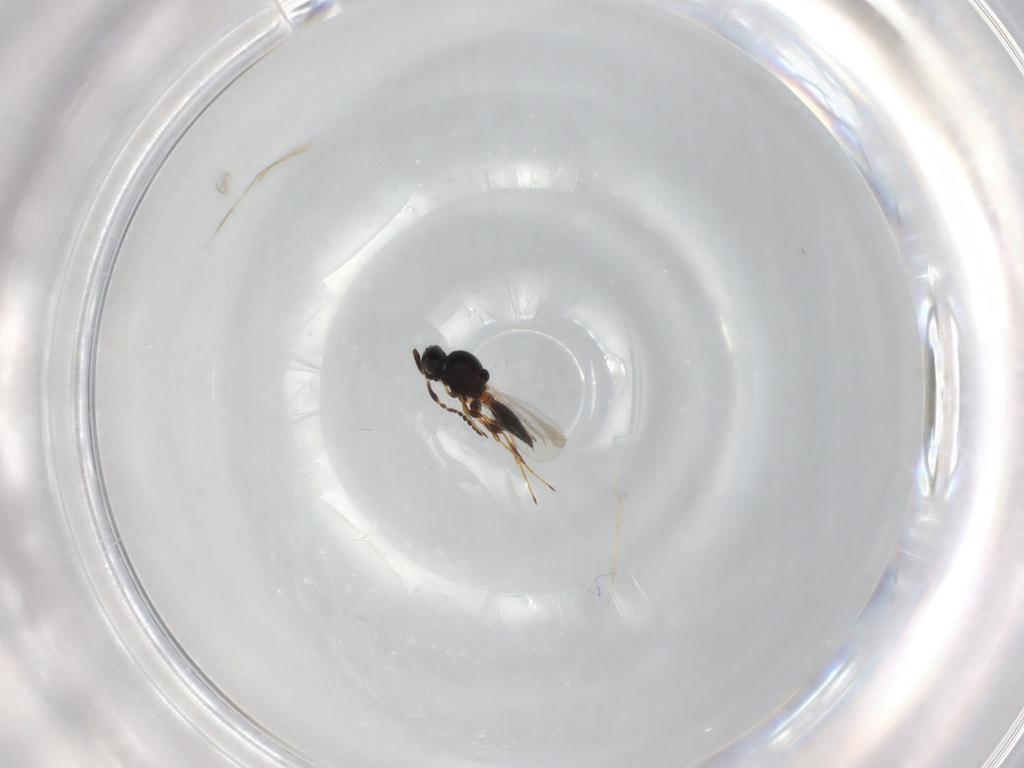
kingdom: Animalia
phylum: Arthropoda
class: Insecta
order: Hymenoptera
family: Platygastridae
